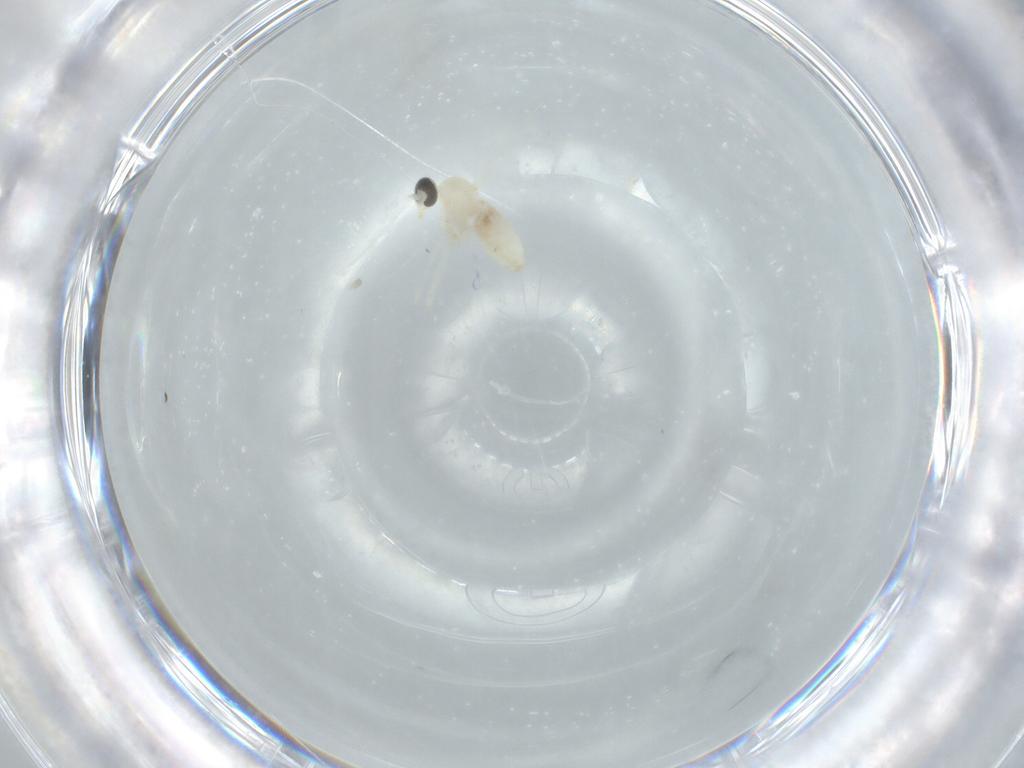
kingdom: Animalia
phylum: Arthropoda
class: Insecta
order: Diptera
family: Cecidomyiidae
